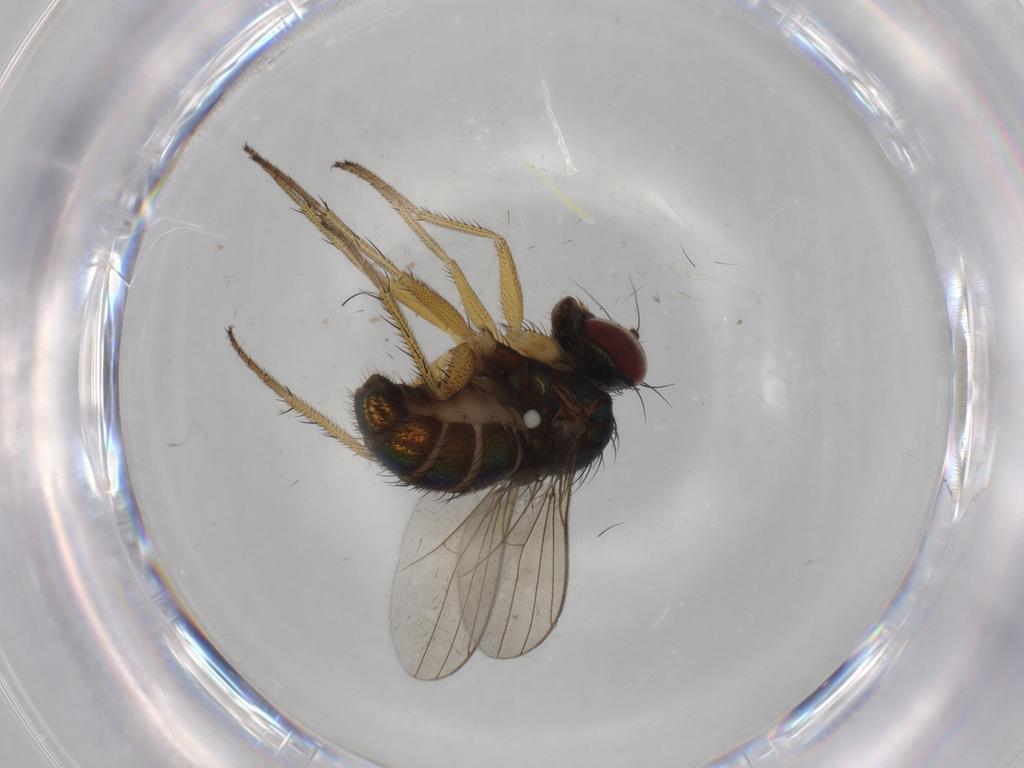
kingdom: Animalia
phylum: Arthropoda
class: Insecta
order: Diptera
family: Dolichopodidae
